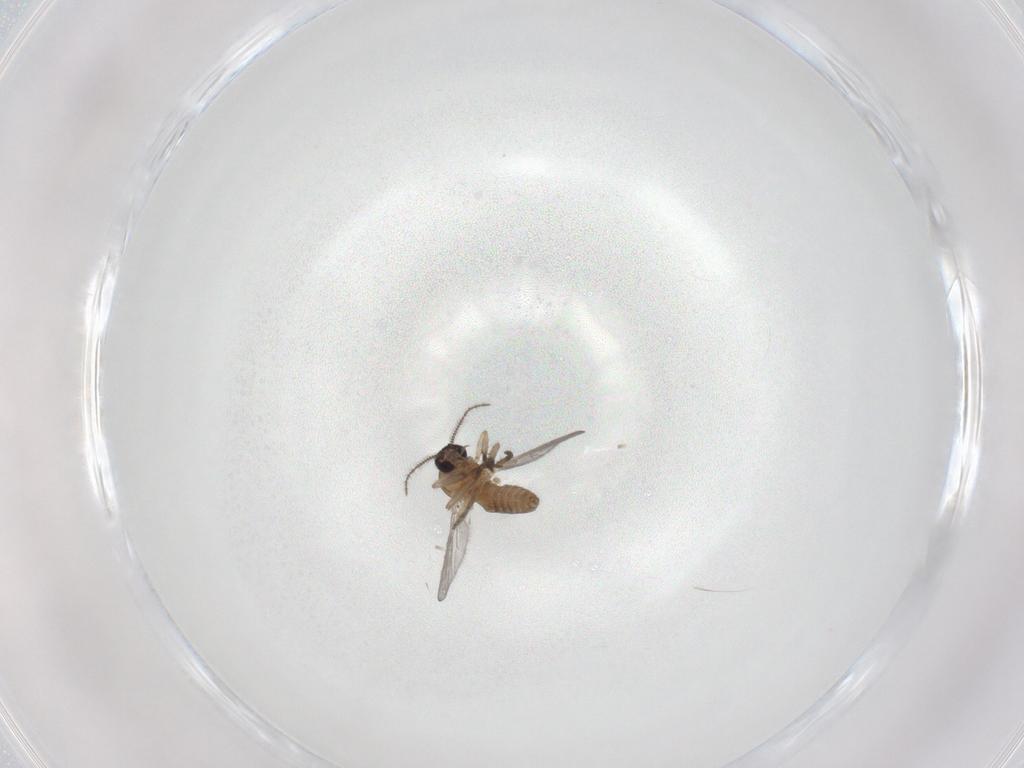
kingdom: Animalia
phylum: Arthropoda
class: Insecta
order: Diptera
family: Ceratopogonidae
